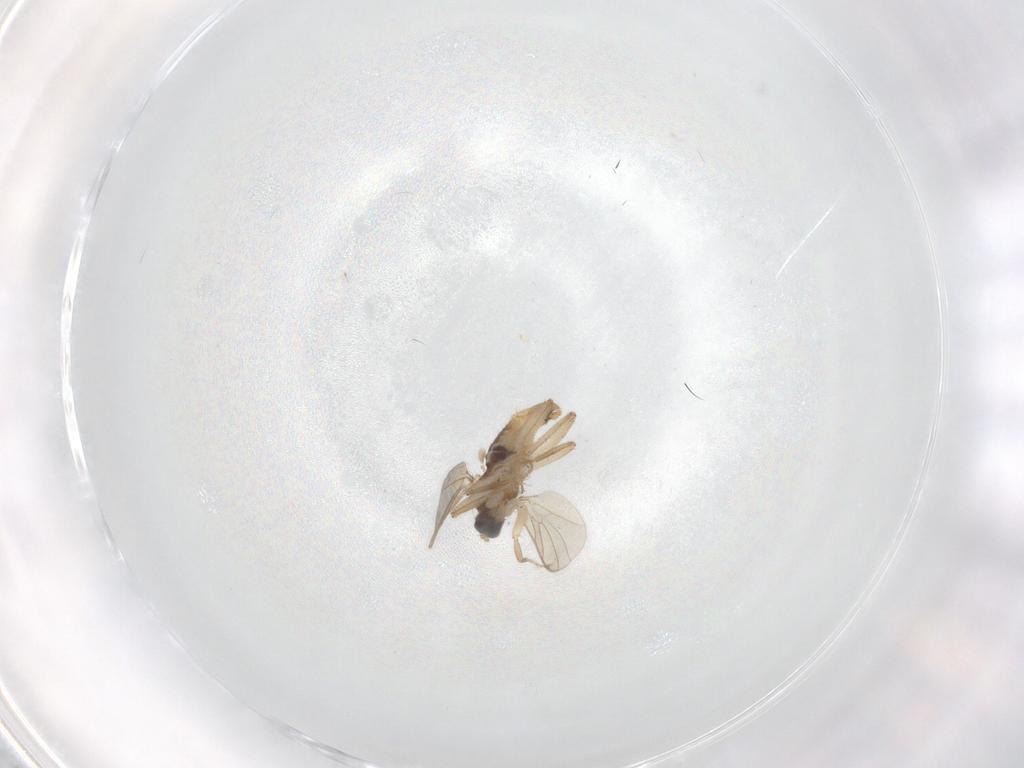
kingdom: Animalia
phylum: Arthropoda
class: Insecta
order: Diptera
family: Hybotidae
